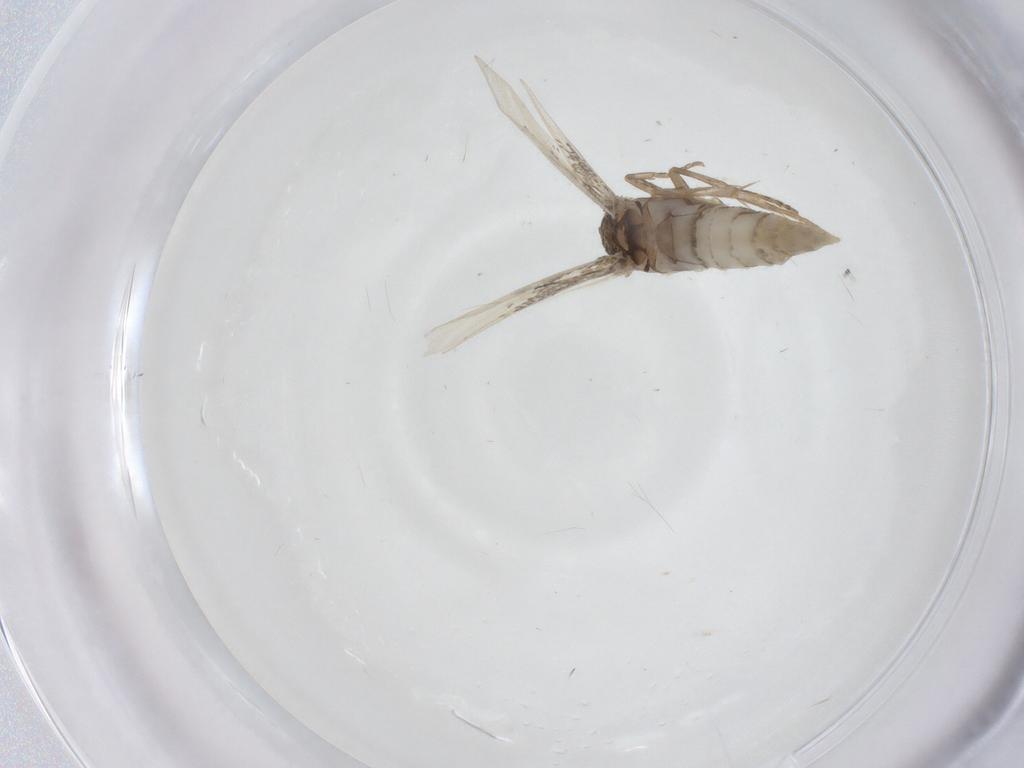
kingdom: Animalia
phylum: Arthropoda
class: Insecta
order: Lepidoptera
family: Elachistidae
